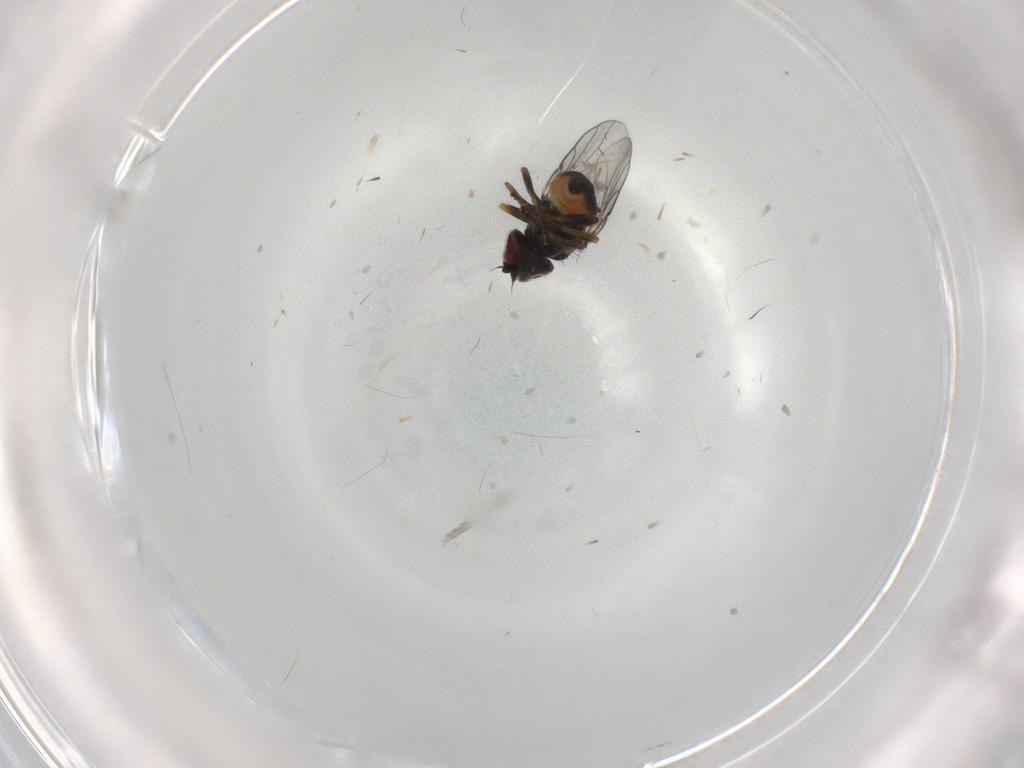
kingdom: Animalia
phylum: Arthropoda
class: Insecta
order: Diptera
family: Chloropidae
